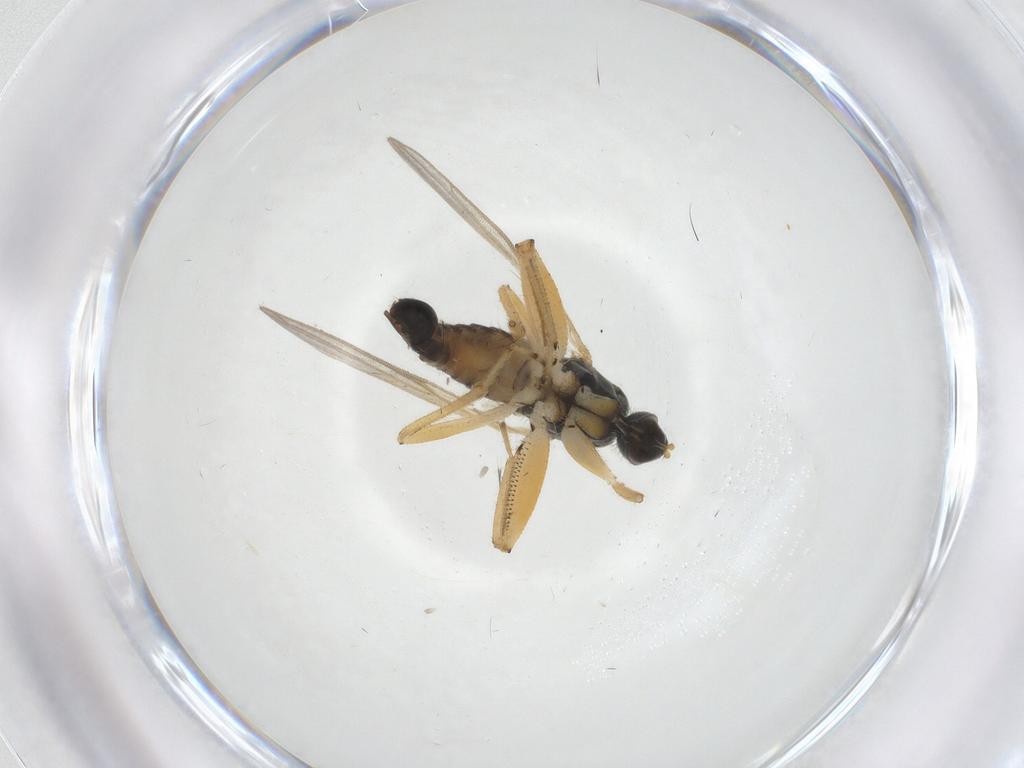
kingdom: Animalia
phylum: Arthropoda
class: Insecta
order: Diptera
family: Hybotidae
